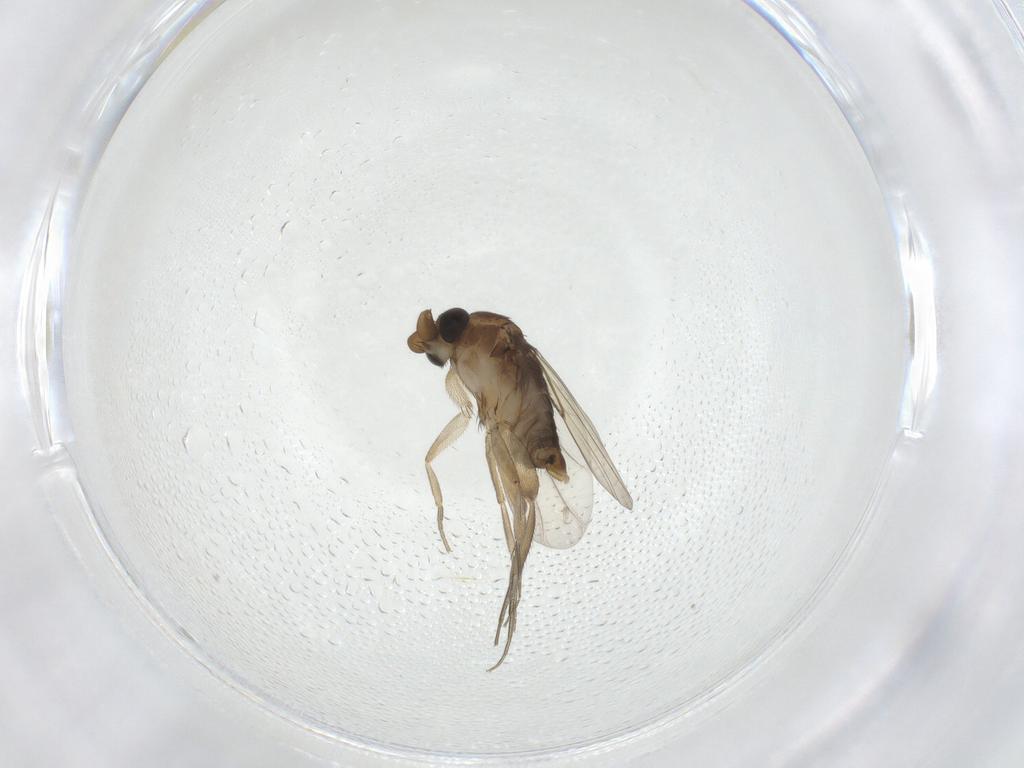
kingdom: Animalia
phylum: Arthropoda
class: Insecta
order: Diptera
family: Muscidae
